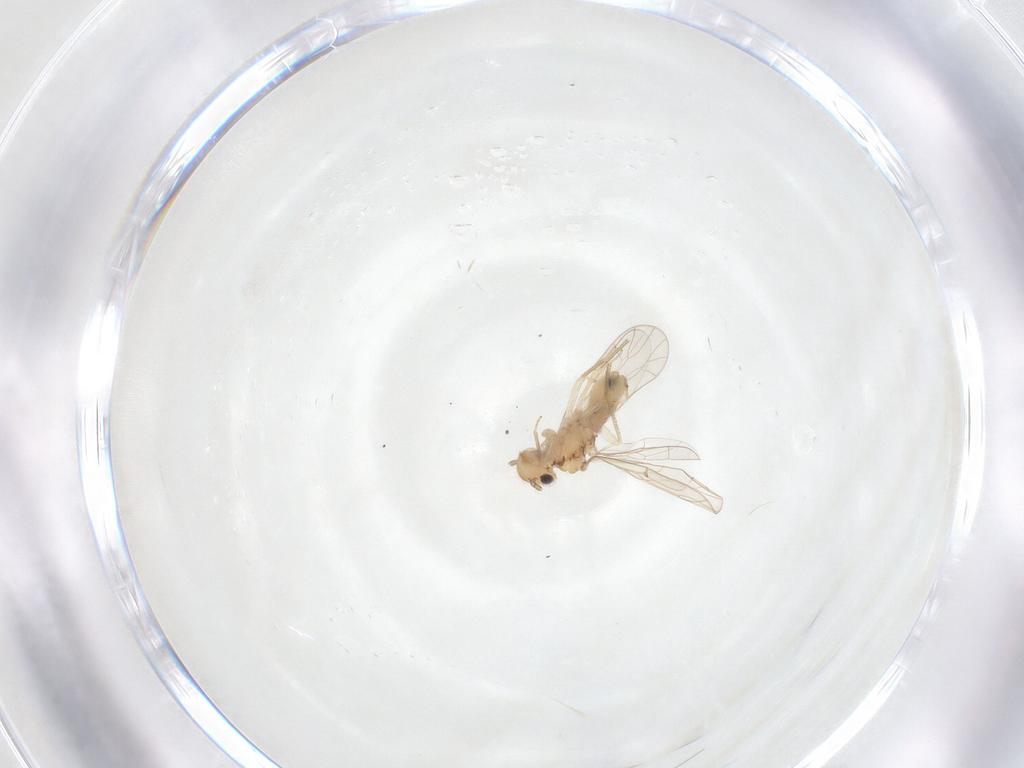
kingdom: Animalia
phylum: Arthropoda
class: Insecta
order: Psocodea
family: Ectopsocidae
